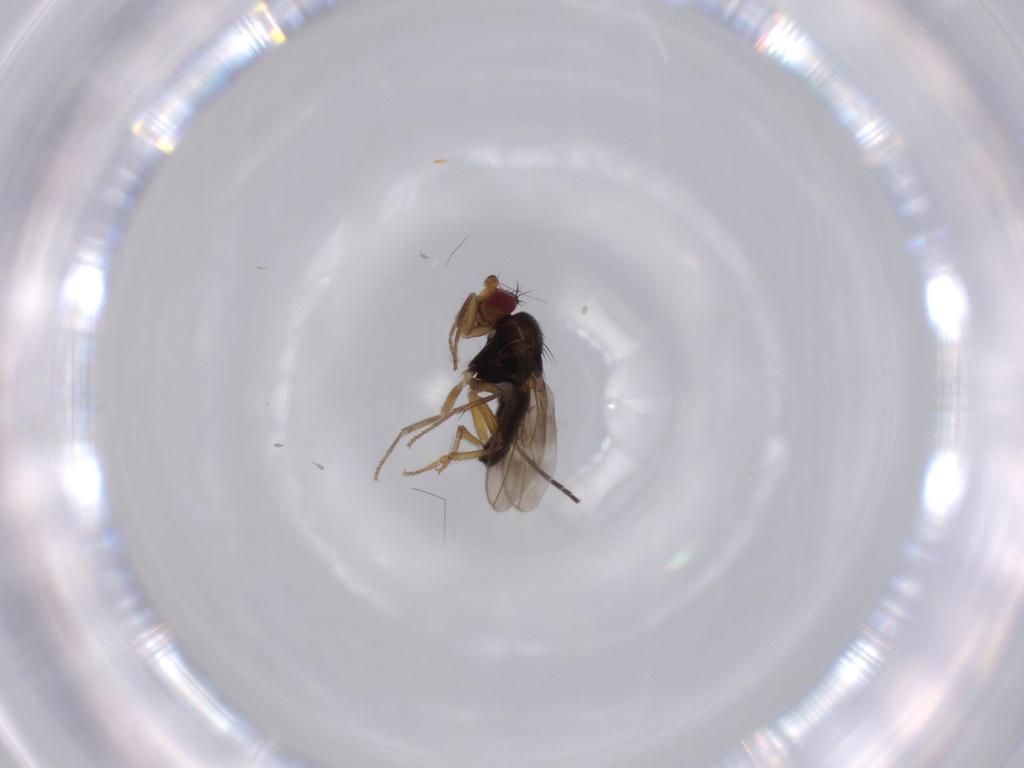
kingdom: Animalia
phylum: Arthropoda
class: Insecta
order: Diptera
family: Sphaeroceridae
